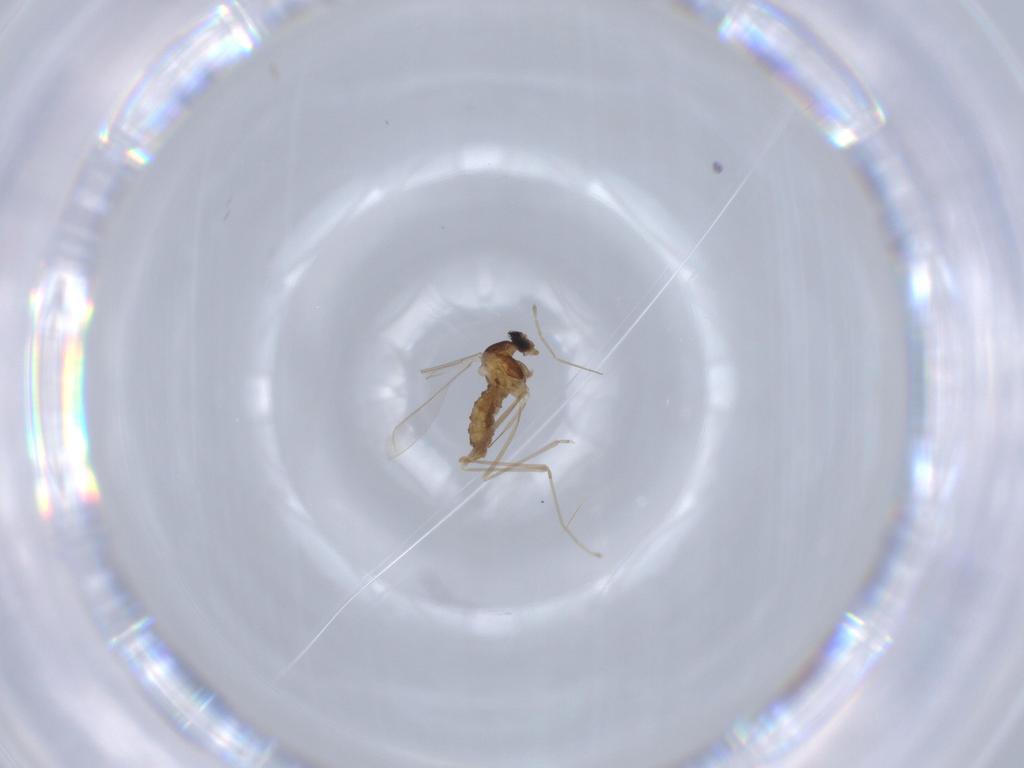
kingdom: Animalia
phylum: Arthropoda
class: Insecta
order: Diptera
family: Cecidomyiidae
